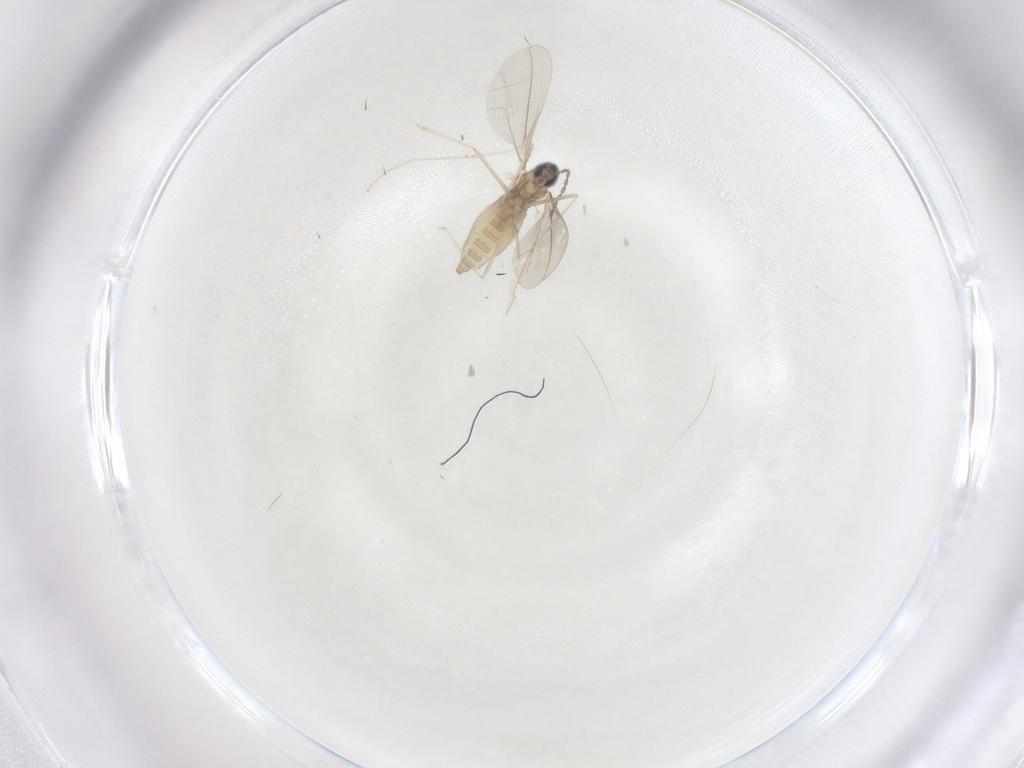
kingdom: Animalia
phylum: Arthropoda
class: Insecta
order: Diptera
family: Cecidomyiidae
